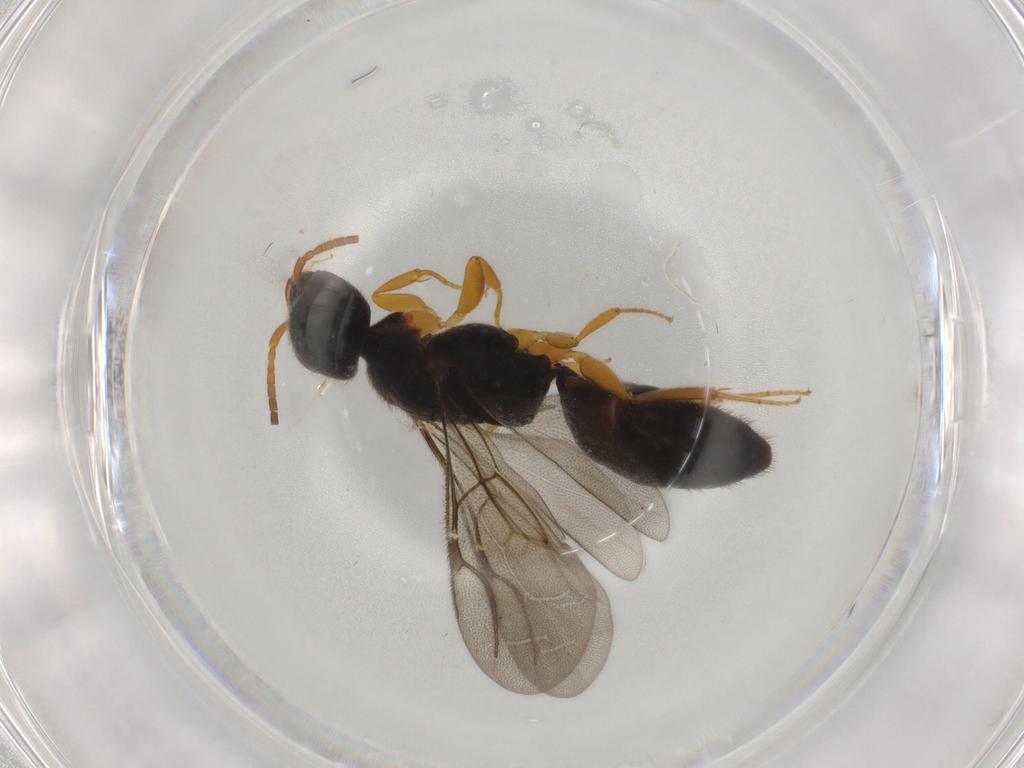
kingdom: Animalia
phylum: Arthropoda
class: Insecta
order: Hymenoptera
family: Bethylidae
